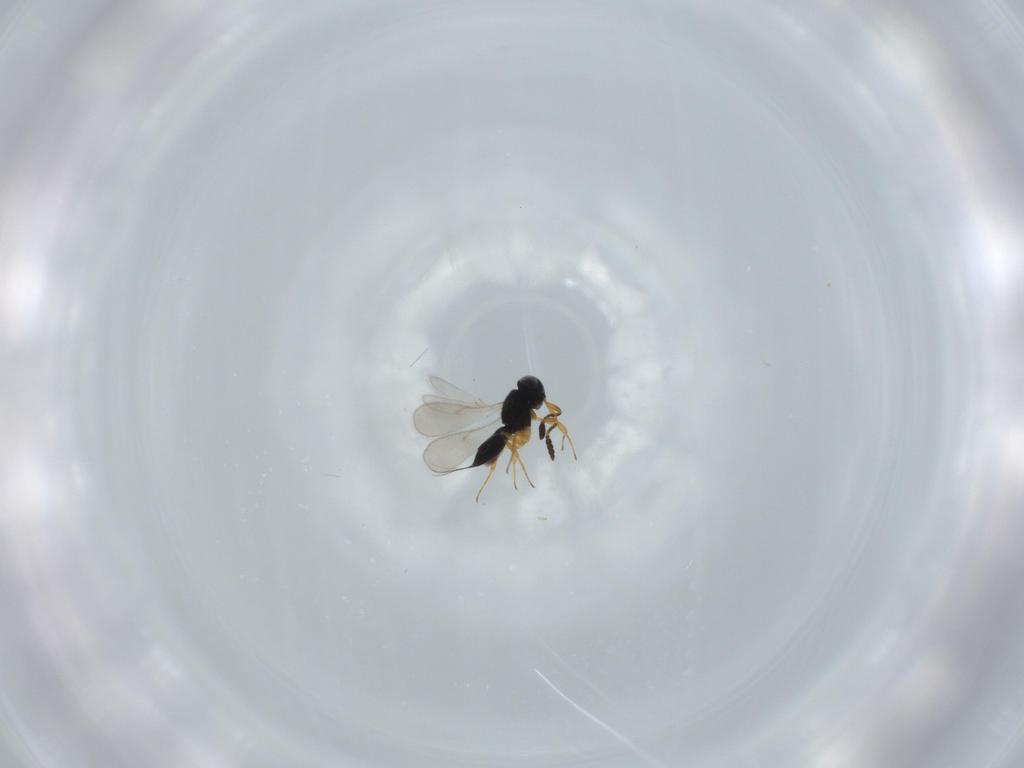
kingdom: Animalia
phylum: Arthropoda
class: Insecta
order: Hymenoptera
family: Scelionidae
